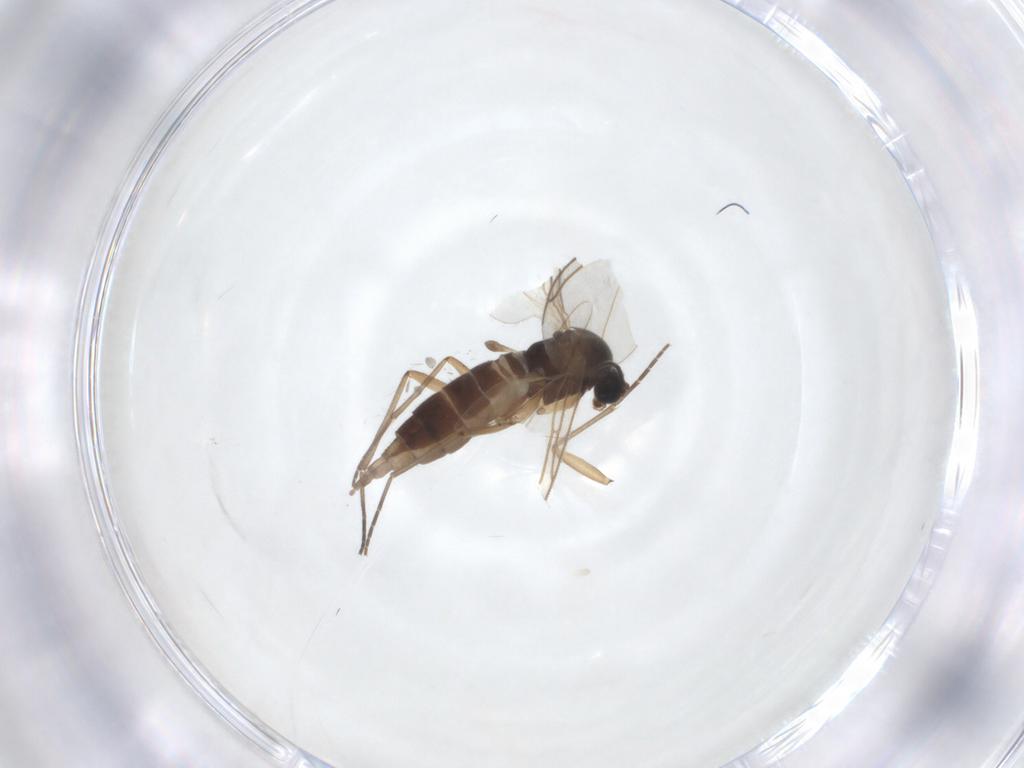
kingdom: Animalia
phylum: Arthropoda
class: Insecta
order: Diptera
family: Sciaridae
